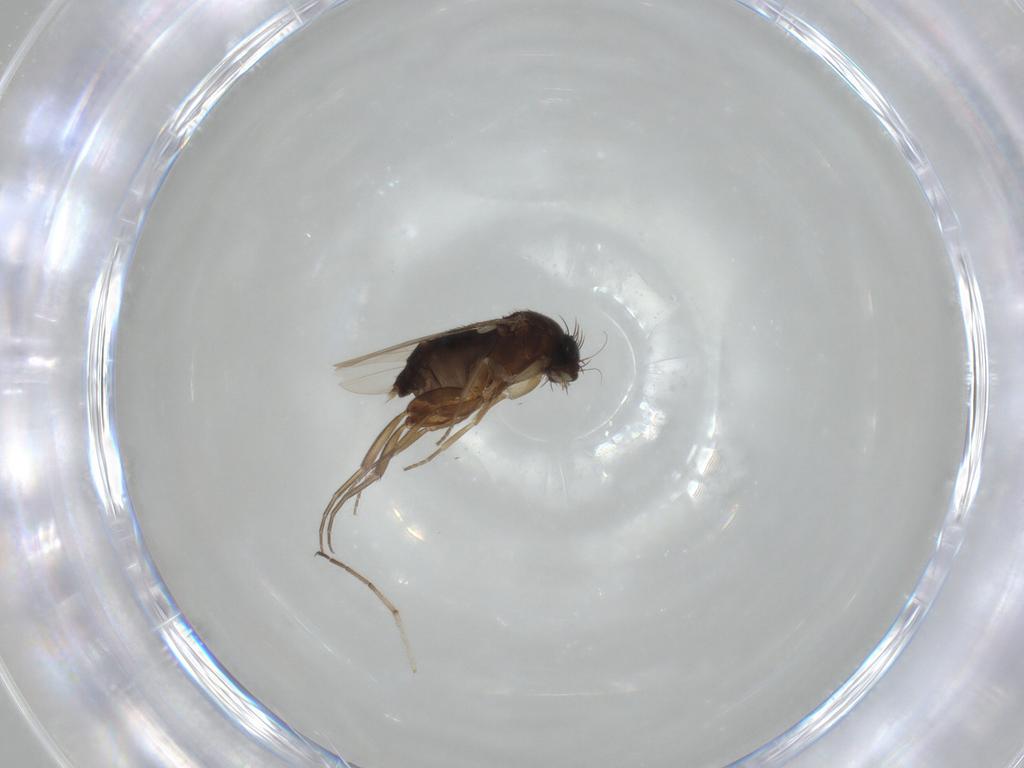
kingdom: Animalia
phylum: Arthropoda
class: Insecta
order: Diptera
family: Phoridae
